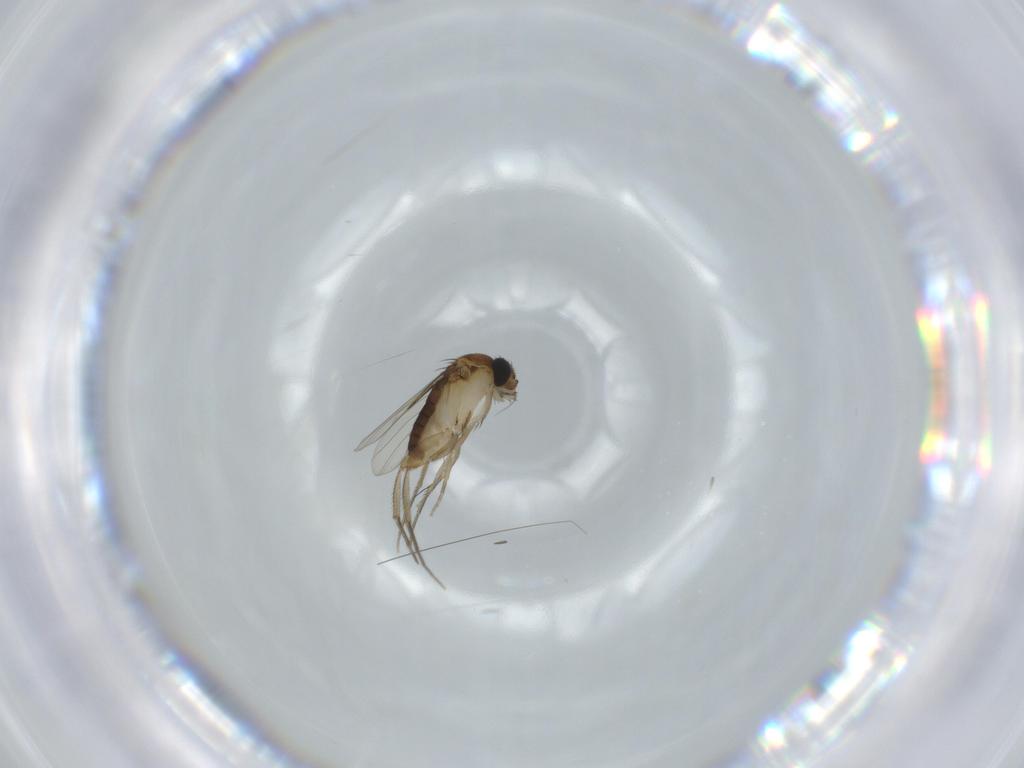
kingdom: Animalia
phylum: Arthropoda
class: Insecta
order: Diptera
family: Phoridae
